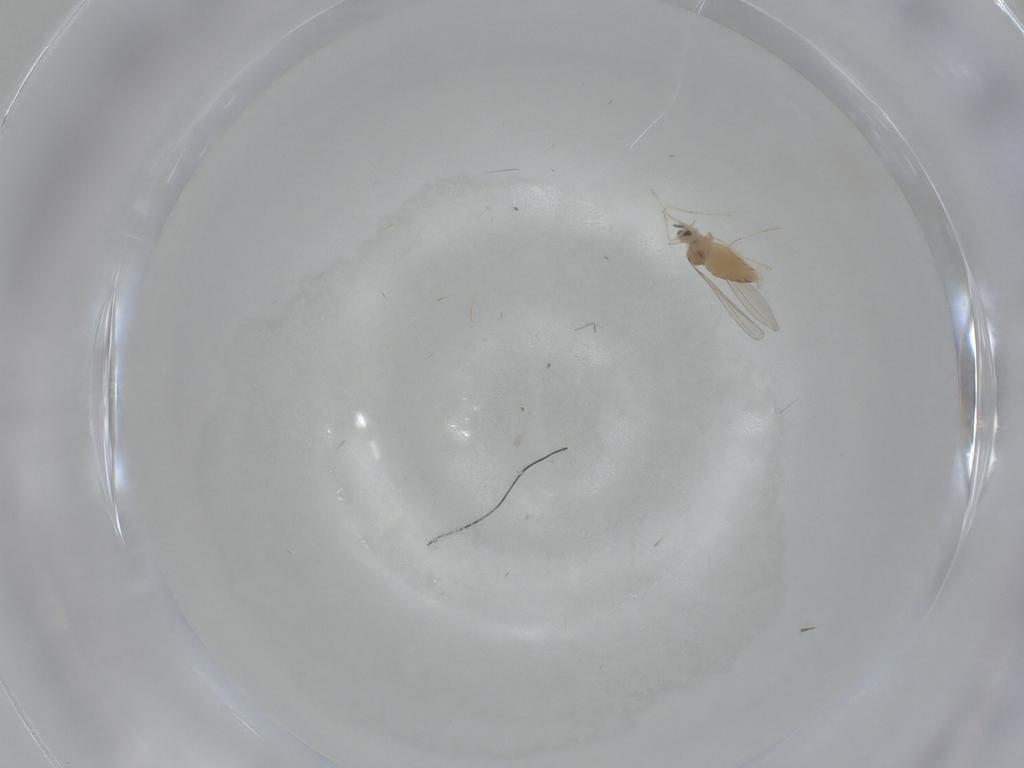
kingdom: Animalia
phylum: Arthropoda
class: Insecta
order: Diptera
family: Cecidomyiidae
